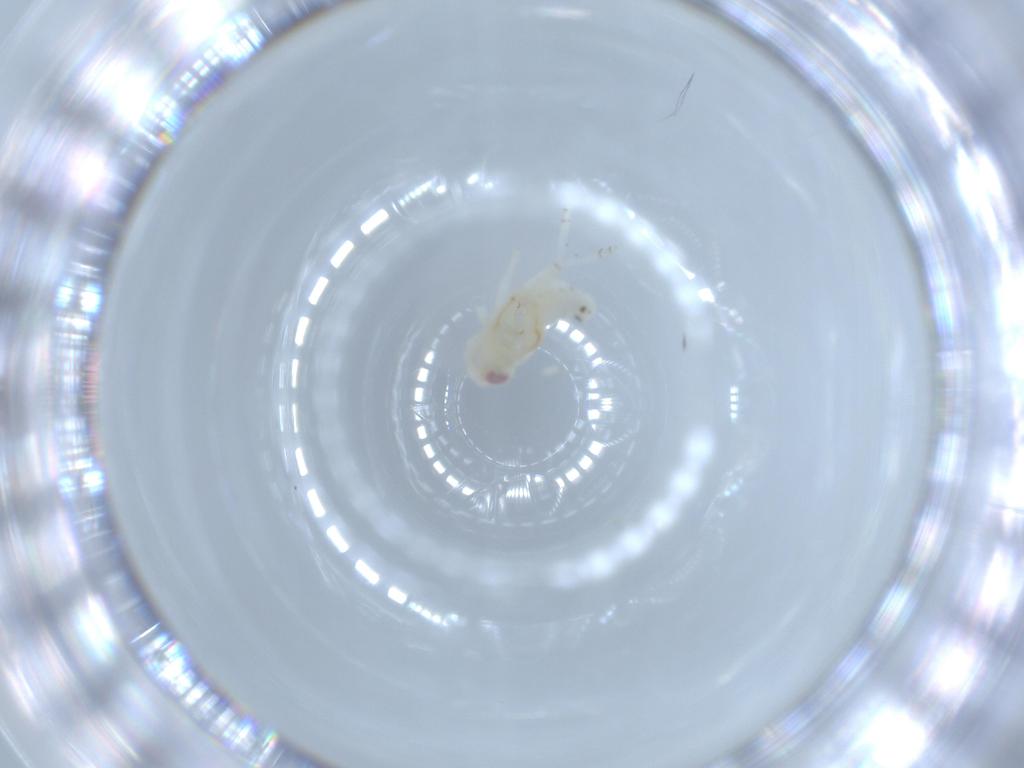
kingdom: Animalia
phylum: Arthropoda
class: Insecta
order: Hemiptera
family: Nogodinidae
